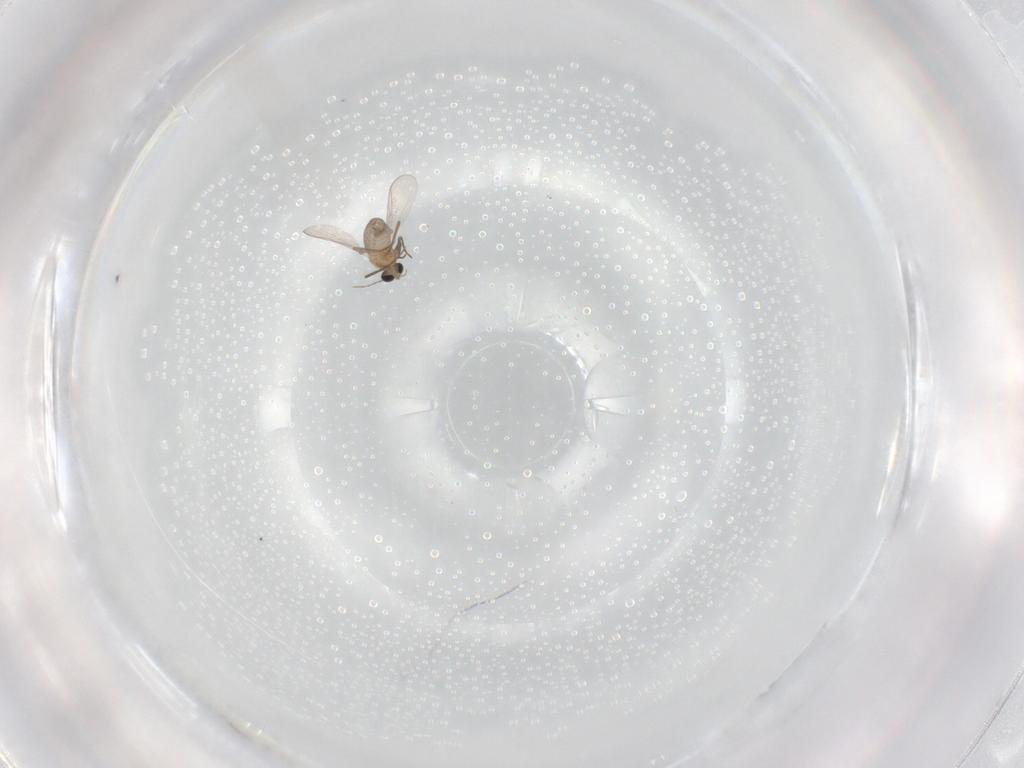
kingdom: Animalia
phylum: Arthropoda
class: Insecta
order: Diptera
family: Chironomidae
